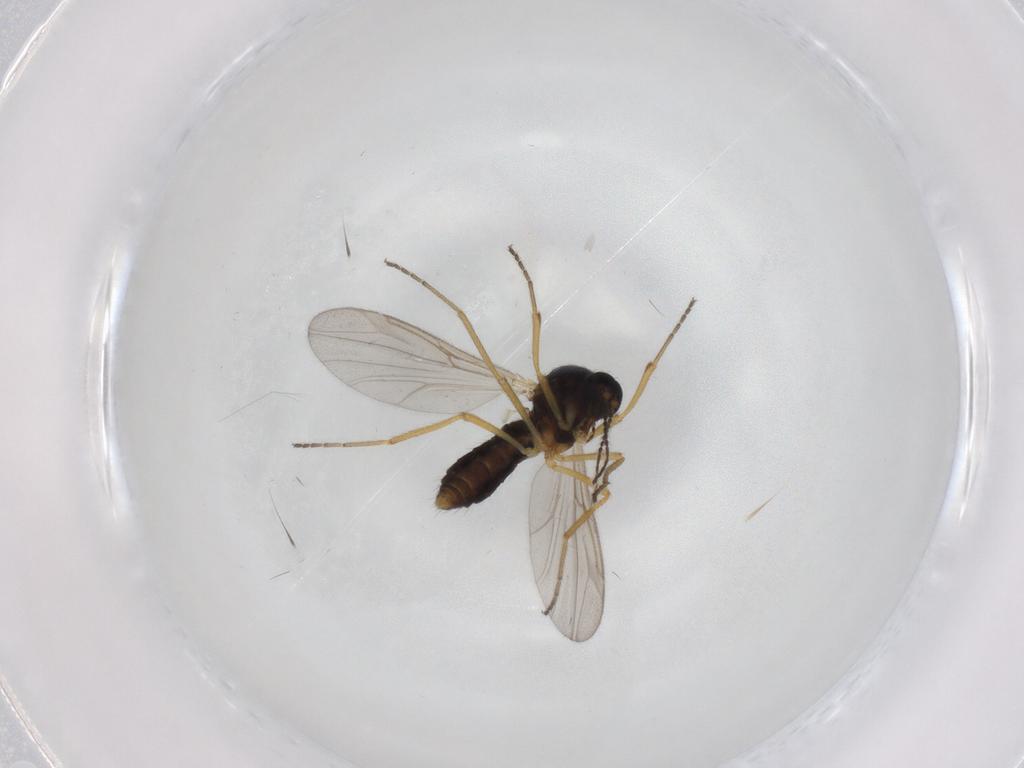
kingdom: Animalia
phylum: Arthropoda
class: Insecta
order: Diptera
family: Ceratopogonidae
